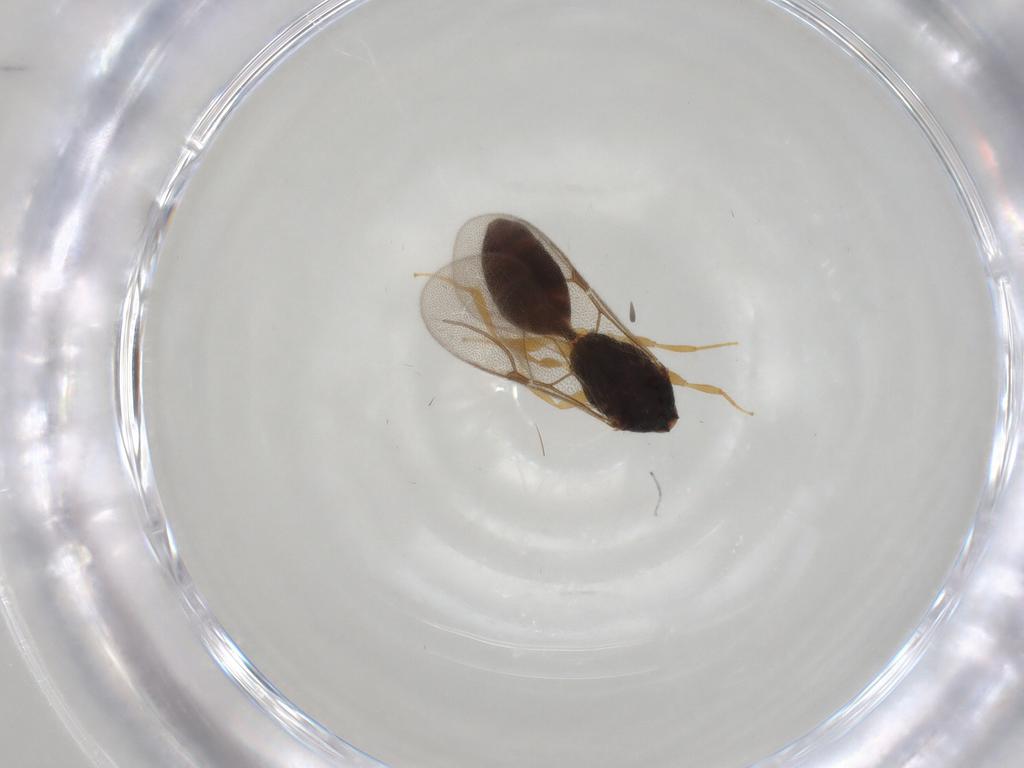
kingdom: Animalia
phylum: Arthropoda
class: Insecta
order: Hymenoptera
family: Bethylidae
